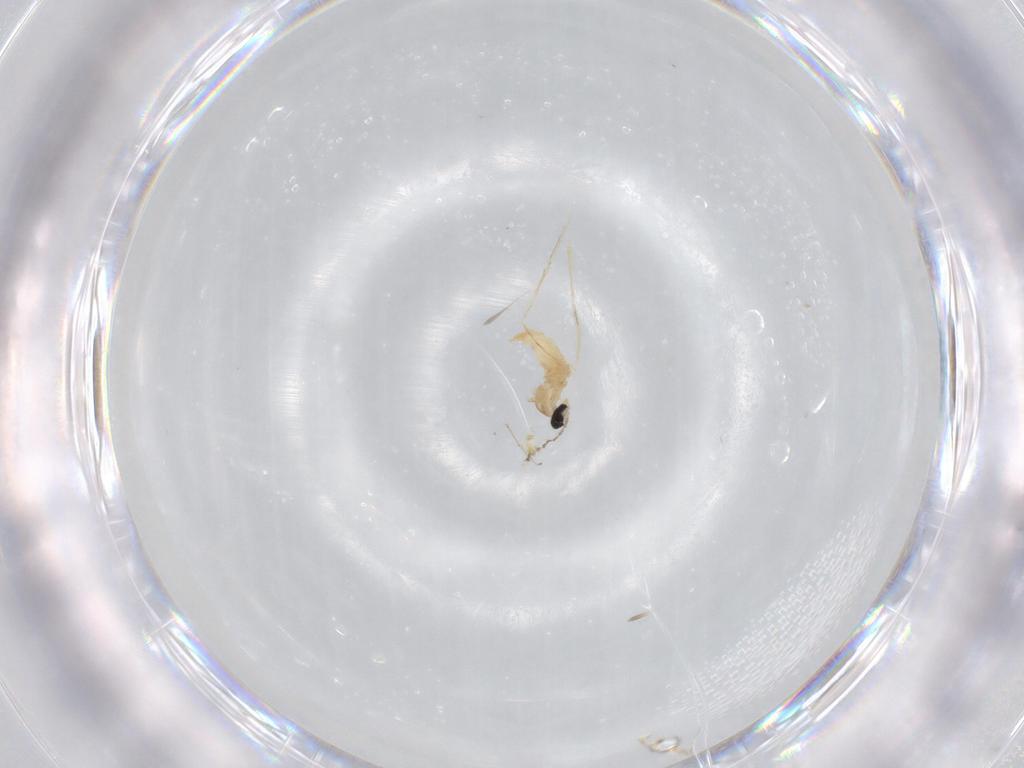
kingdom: Animalia
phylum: Arthropoda
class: Insecta
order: Diptera
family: Cecidomyiidae
